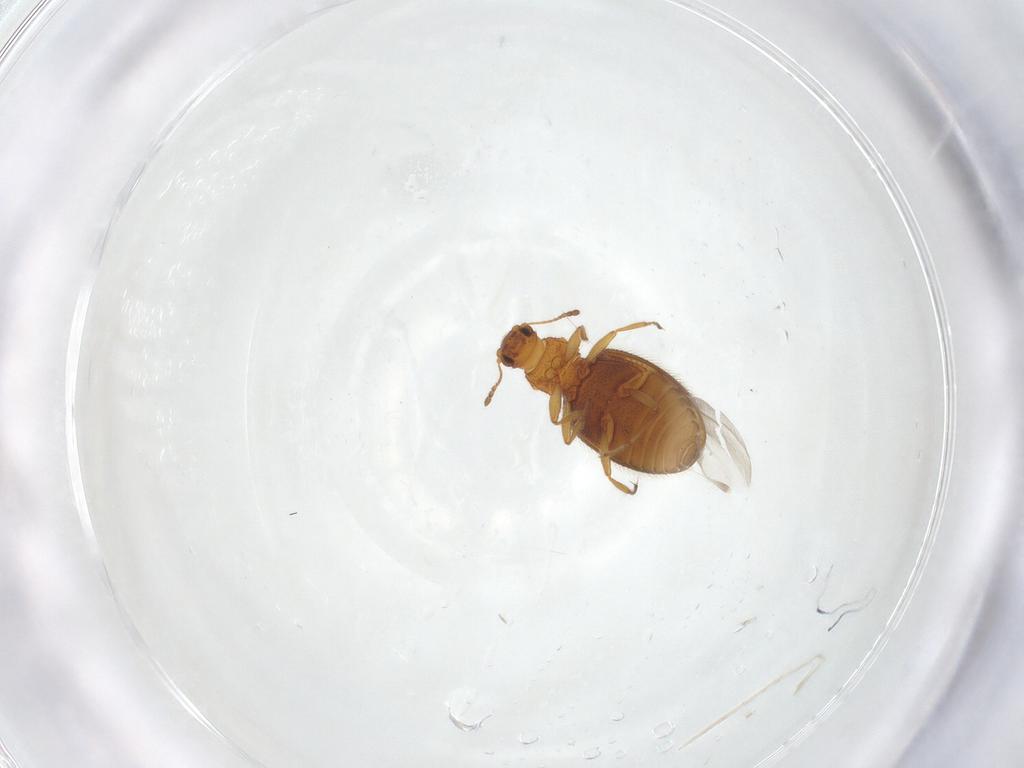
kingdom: Animalia
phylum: Arthropoda
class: Insecta
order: Coleoptera
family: Latridiidae
